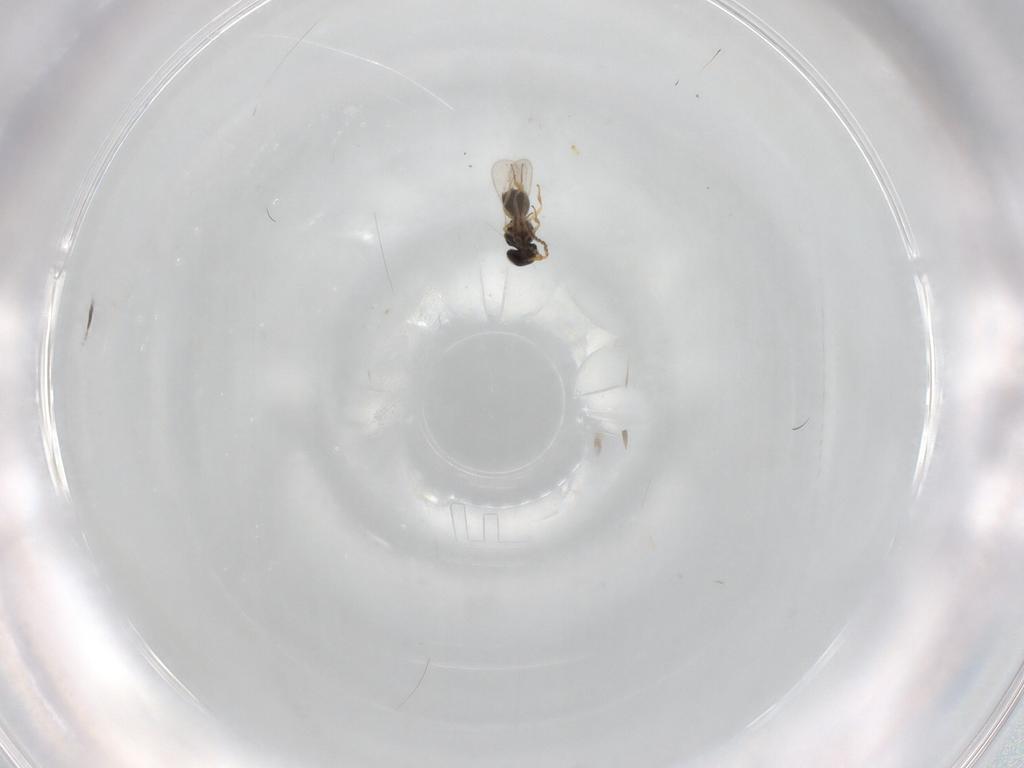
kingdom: Animalia
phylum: Arthropoda
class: Insecta
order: Hymenoptera
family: Scelionidae
